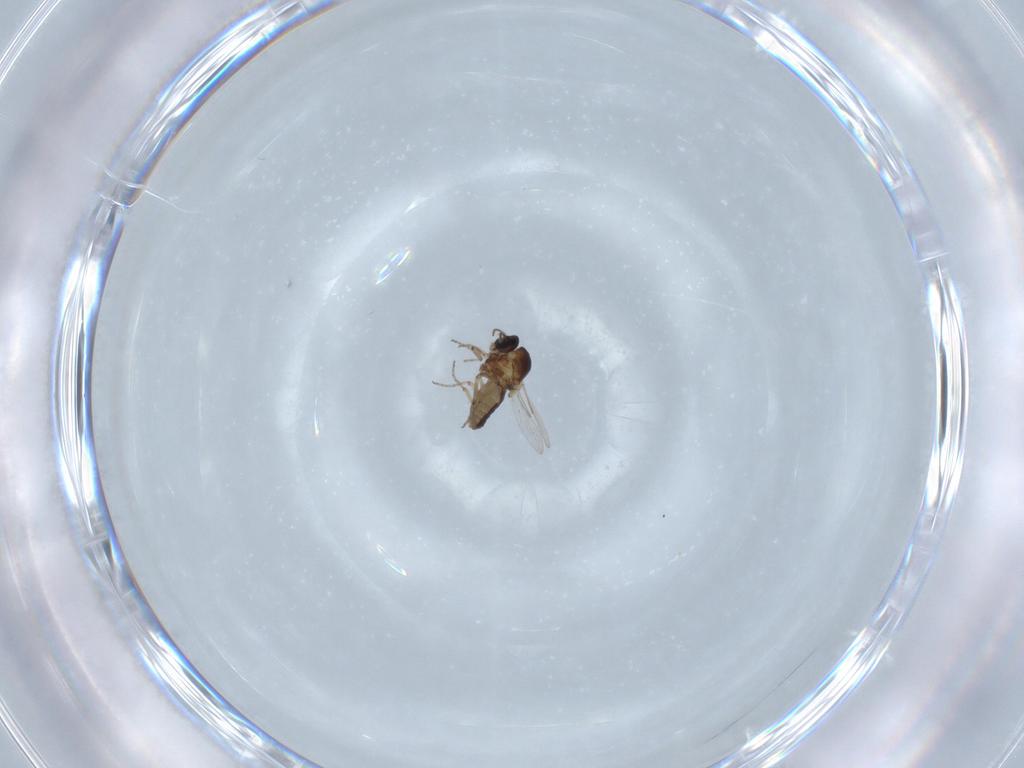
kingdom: Animalia
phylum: Arthropoda
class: Insecta
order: Diptera
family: Ceratopogonidae
